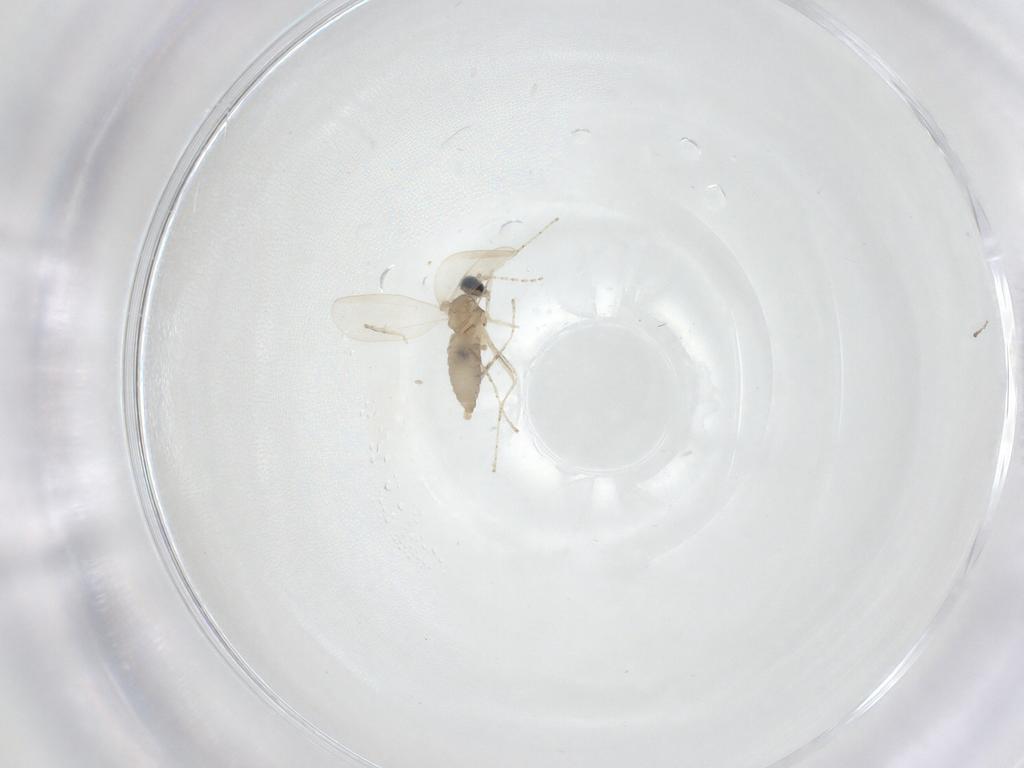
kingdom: Animalia
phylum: Arthropoda
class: Insecta
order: Diptera
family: Cecidomyiidae
